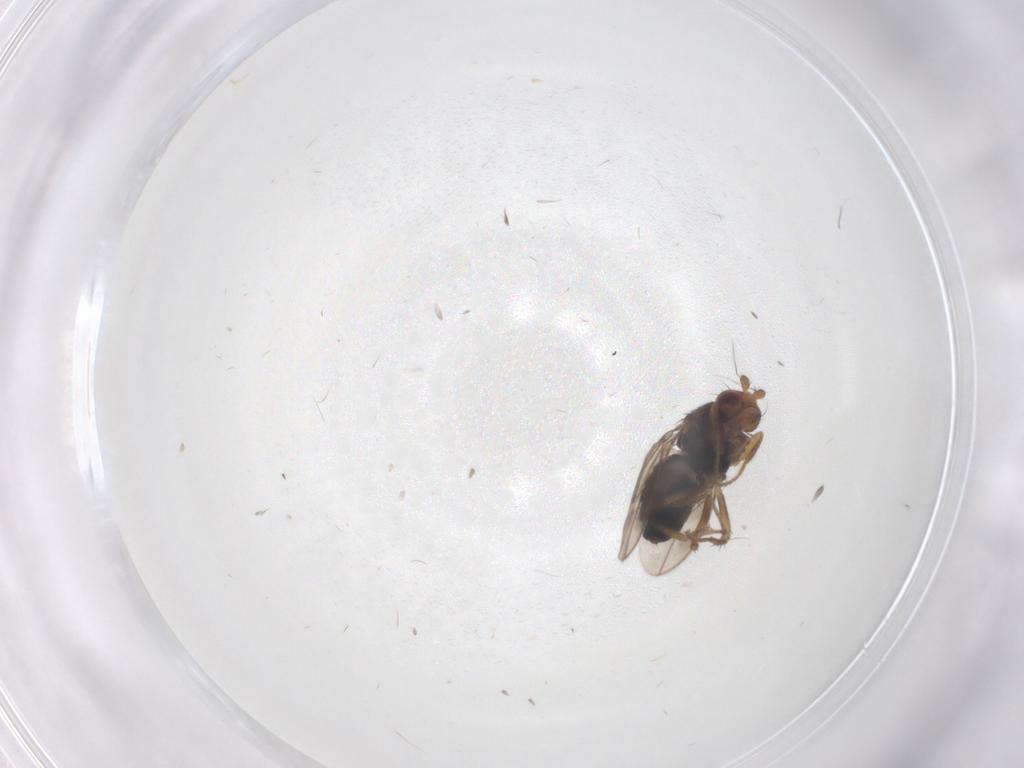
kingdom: Animalia
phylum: Arthropoda
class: Insecta
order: Diptera
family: Sphaeroceridae
